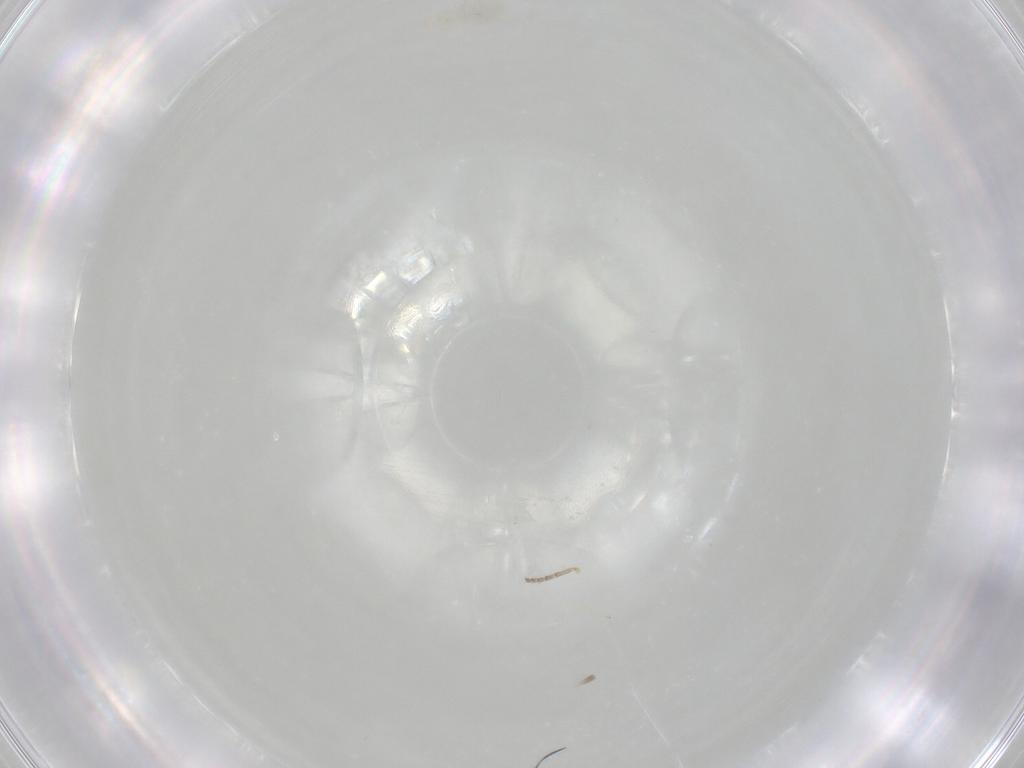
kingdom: Animalia
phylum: Arthropoda
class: Arachnida
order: Trombidiformes
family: Erythraeidae
